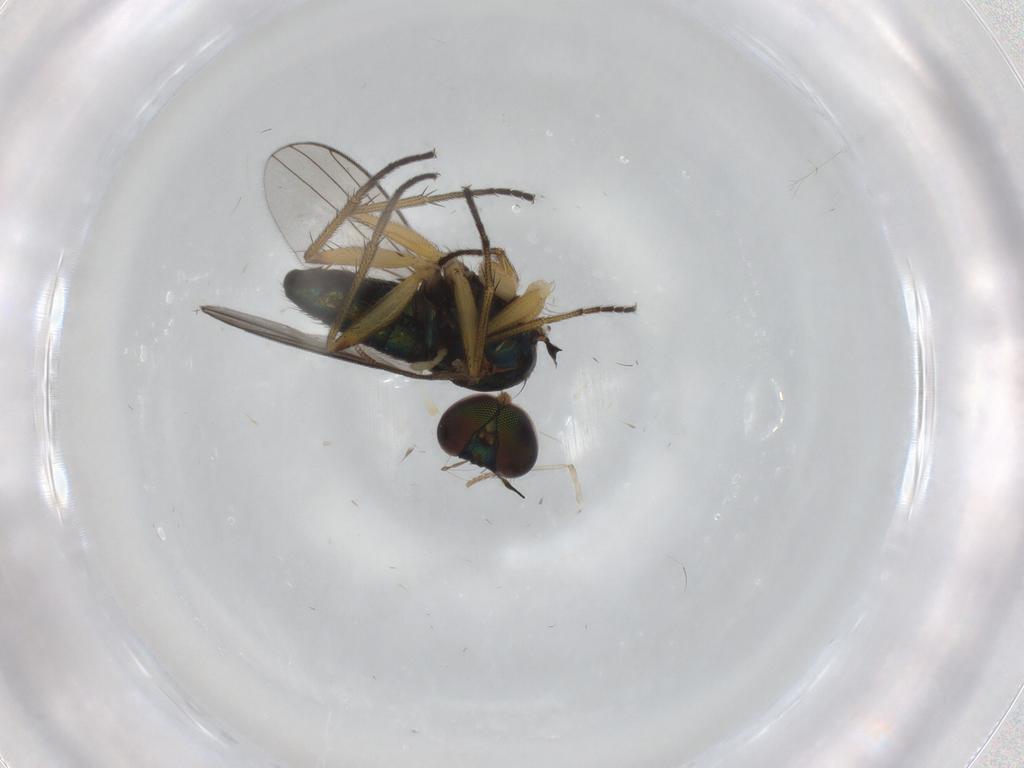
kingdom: Animalia
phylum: Arthropoda
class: Insecta
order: Diptera
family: Dolichopodidae
